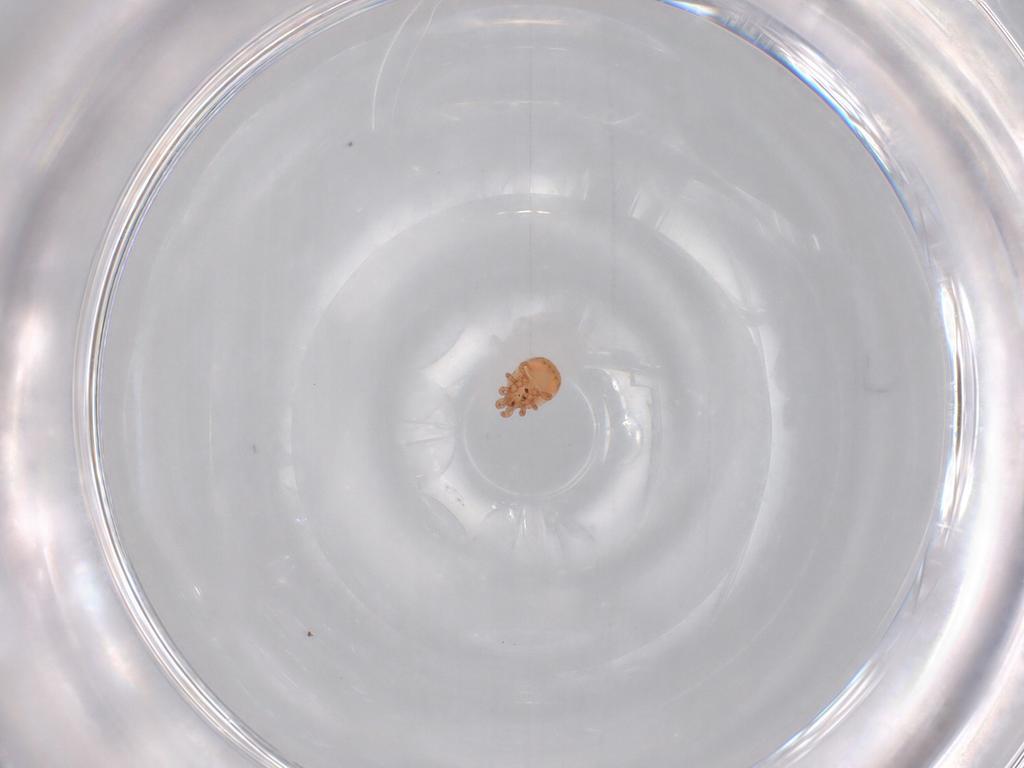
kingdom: Animalia
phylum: Arthropoda
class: Arachnida
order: Mesostigmata
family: Zerconidae
